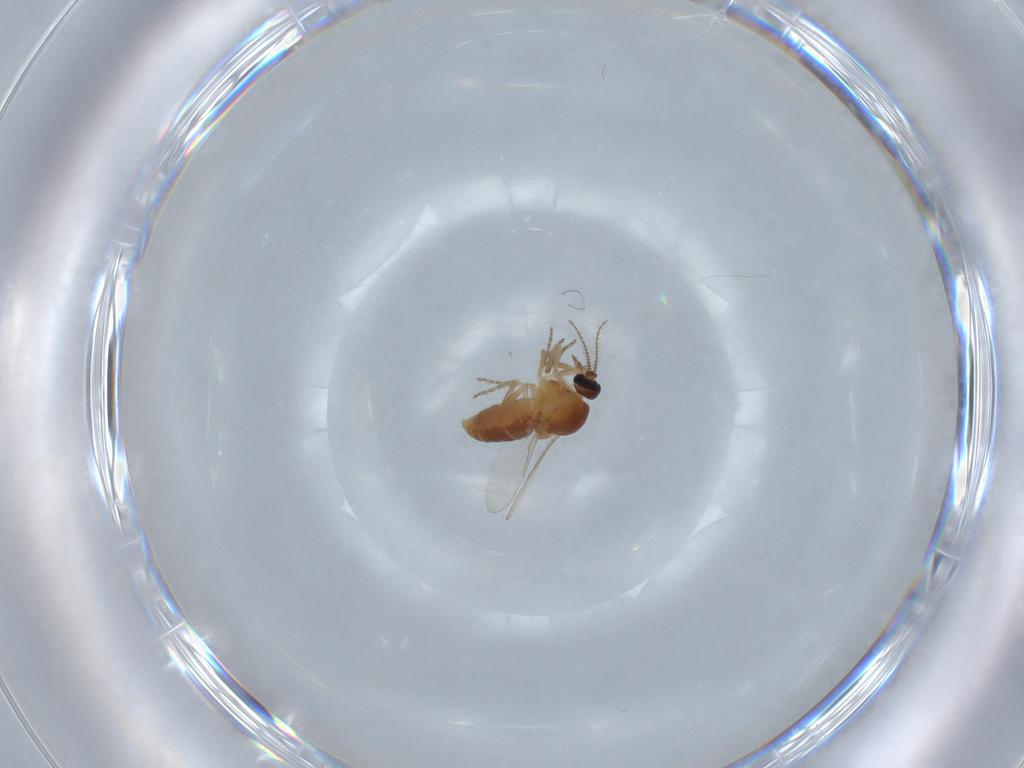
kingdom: Animalia
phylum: Arthropoda
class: Insecta
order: Diptera
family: Ceratopogonidae
